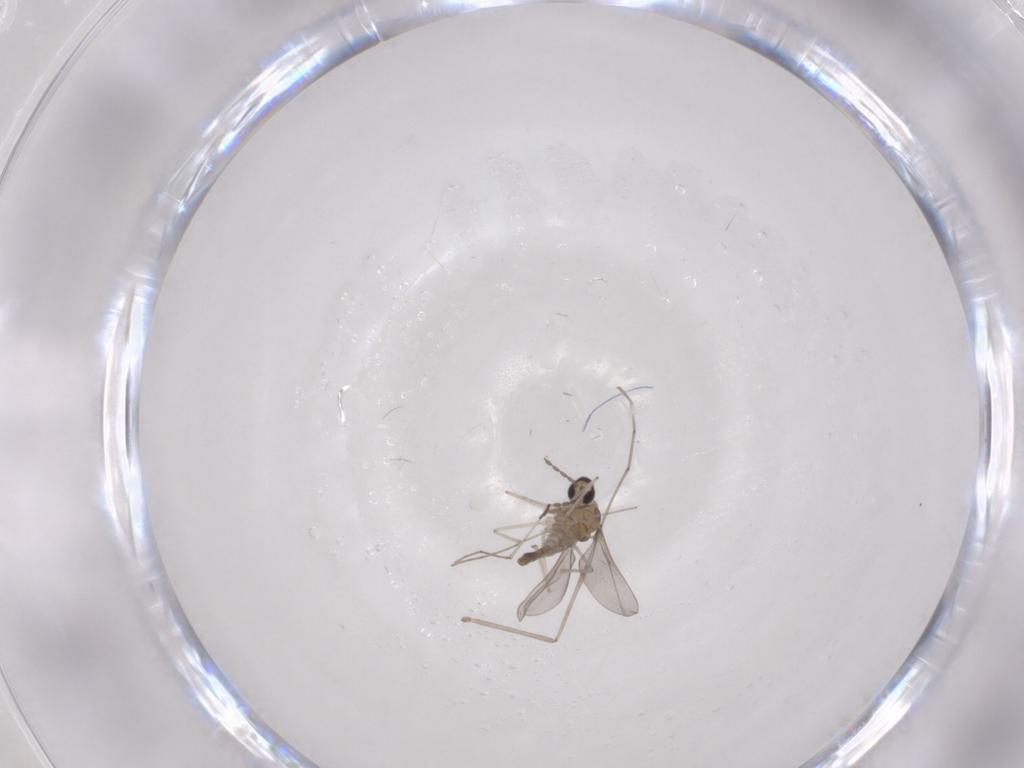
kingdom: Animalia
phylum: Arthropoda
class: Insecta
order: Diptera
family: Cecidomyiidae
